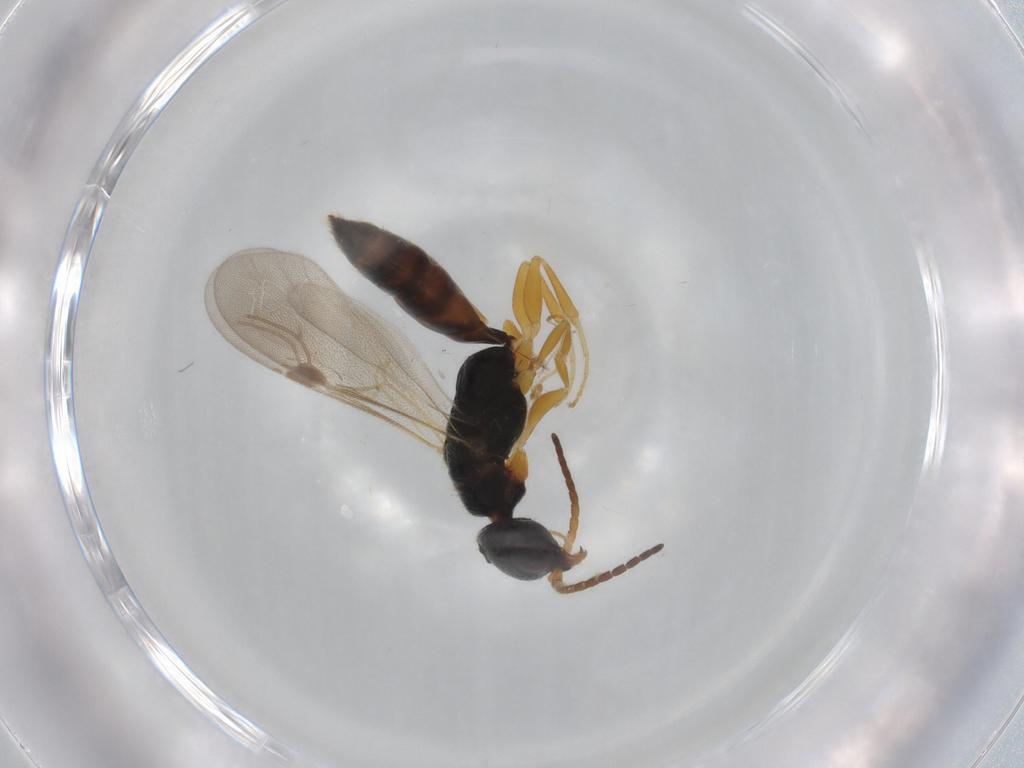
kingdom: Animalia
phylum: Arthropoda
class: Insecta
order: Hymenoptera
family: Bethylidae
